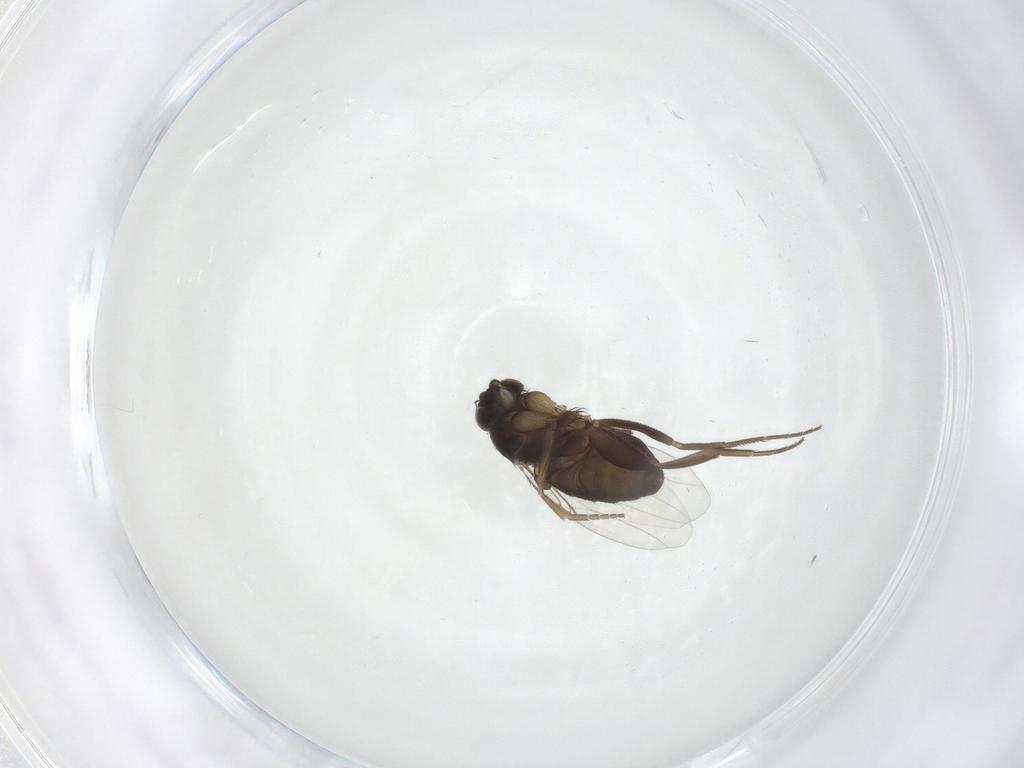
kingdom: Animalia
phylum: Arthropoda
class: Insecta
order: Diptera
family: Phoridae
